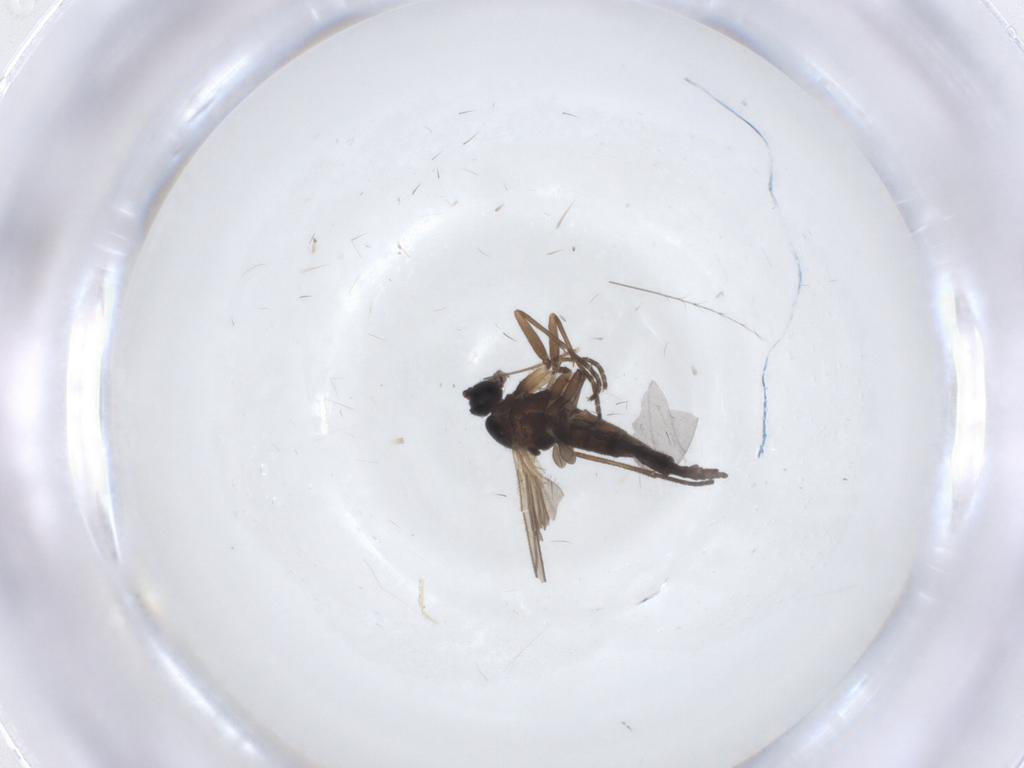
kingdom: Animalia
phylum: Arthropoda
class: Insecta
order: Diptera
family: Sciaridae
